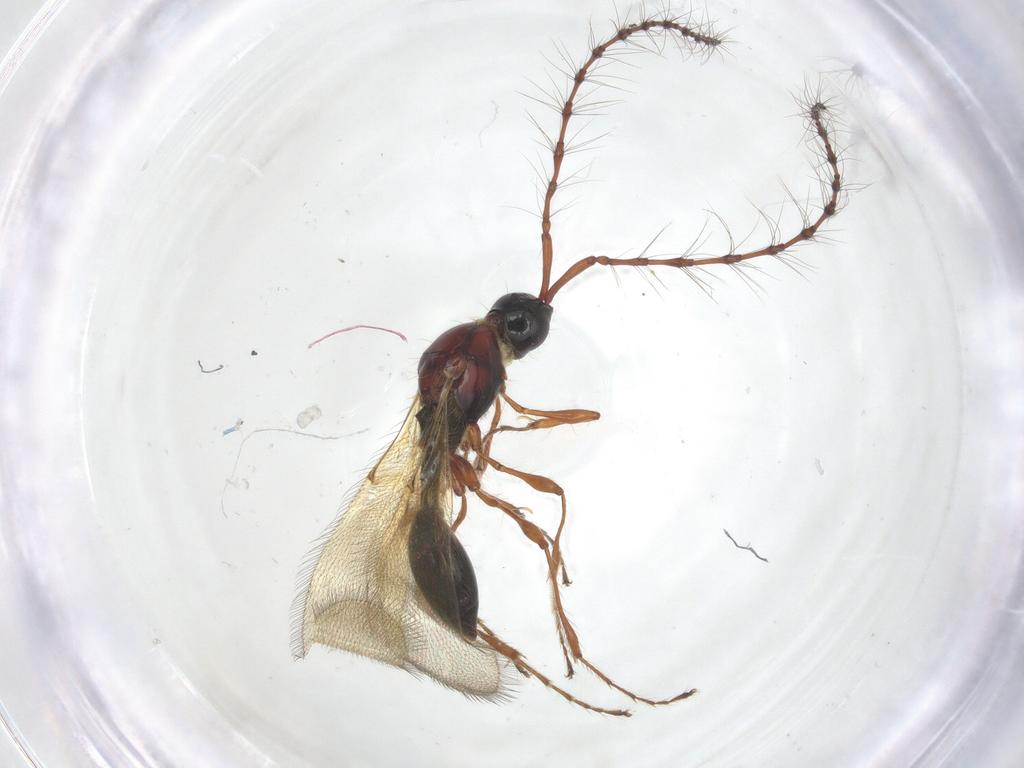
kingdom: Animalia
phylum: Arthropoda
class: Insecta
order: Hymenoptera
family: Diapriidae
